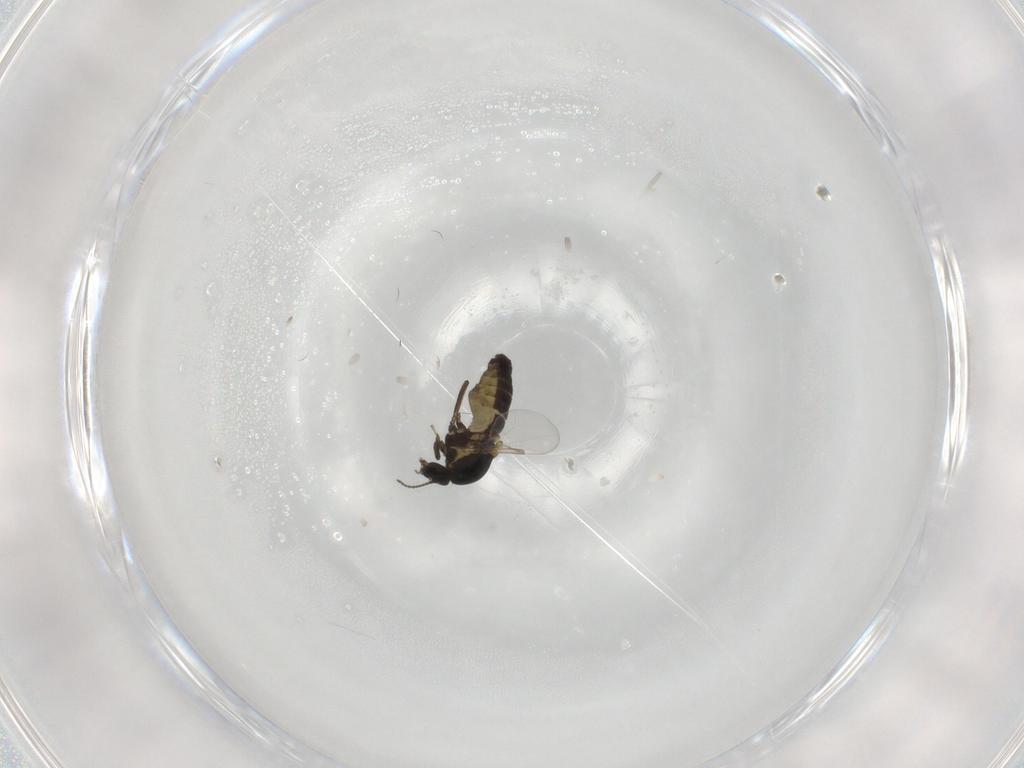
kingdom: Animalia
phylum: Arthropoda
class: Insecta
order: Diptera
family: Ceratopogonidae
